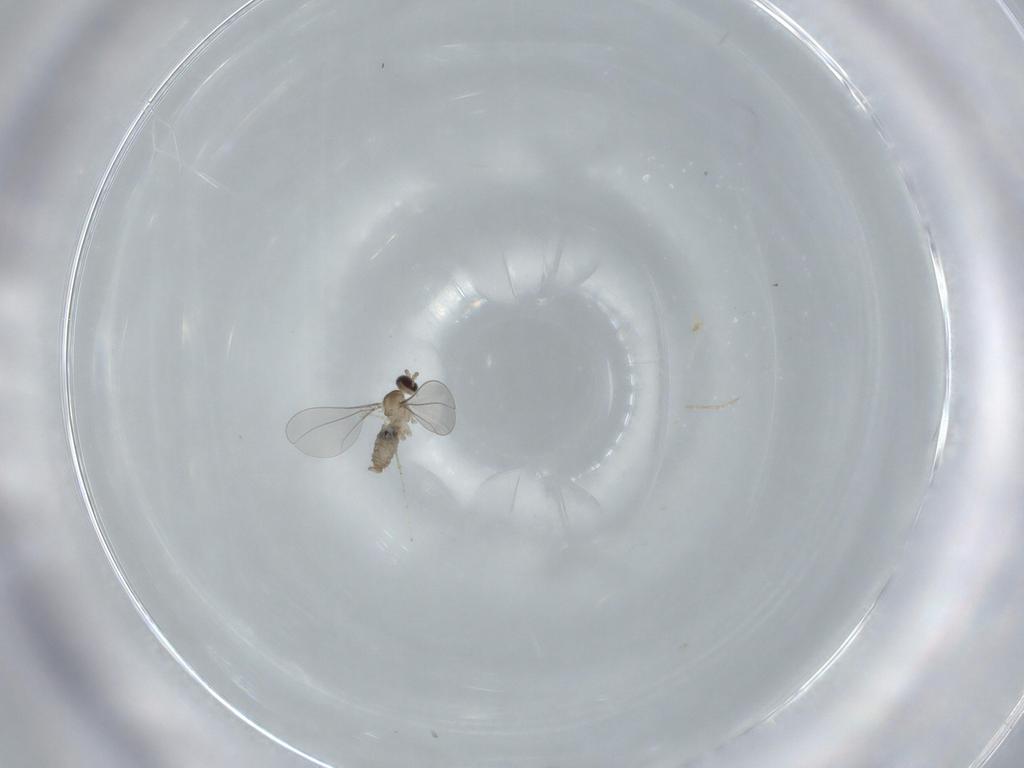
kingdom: Animalia
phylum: Arthropoda
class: Insecta
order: Diptera
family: Cecidomyiidae
